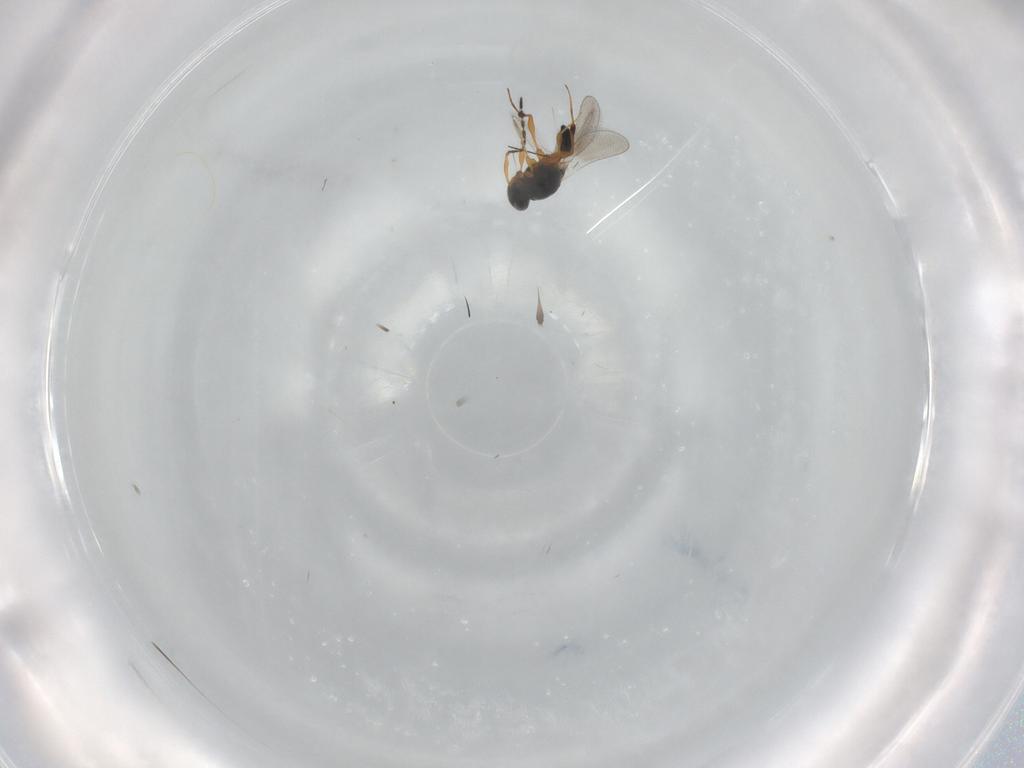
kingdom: Animalia
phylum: Arthropoda
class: Insecta
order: Hymenoptera
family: Platygastridae
